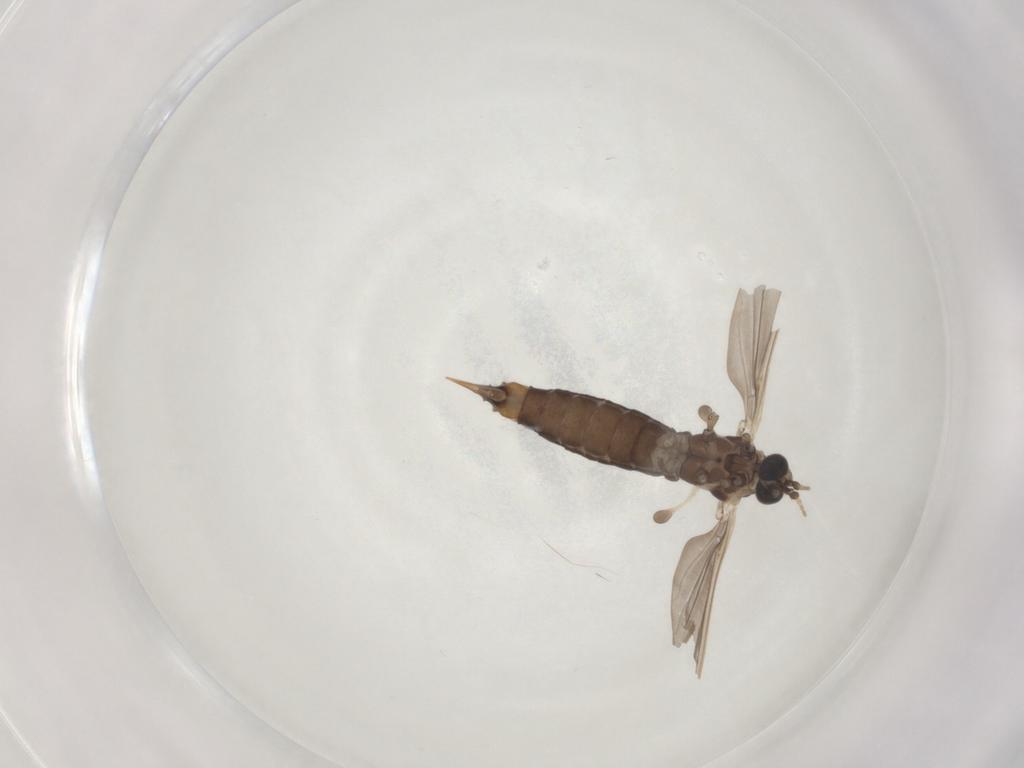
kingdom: Animalia
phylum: Arthropoda
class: Insecta
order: Diptera
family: Limoniidae
